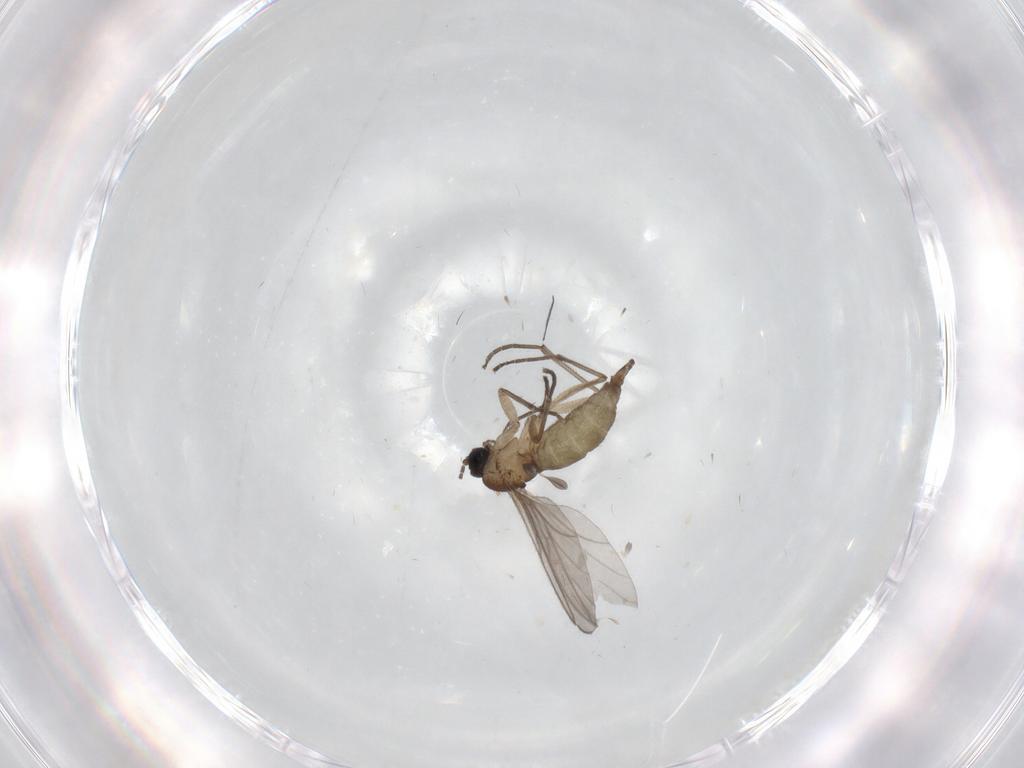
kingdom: Animalia
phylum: Arthropoda
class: Insecta
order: Diptera
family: Sciaridae
